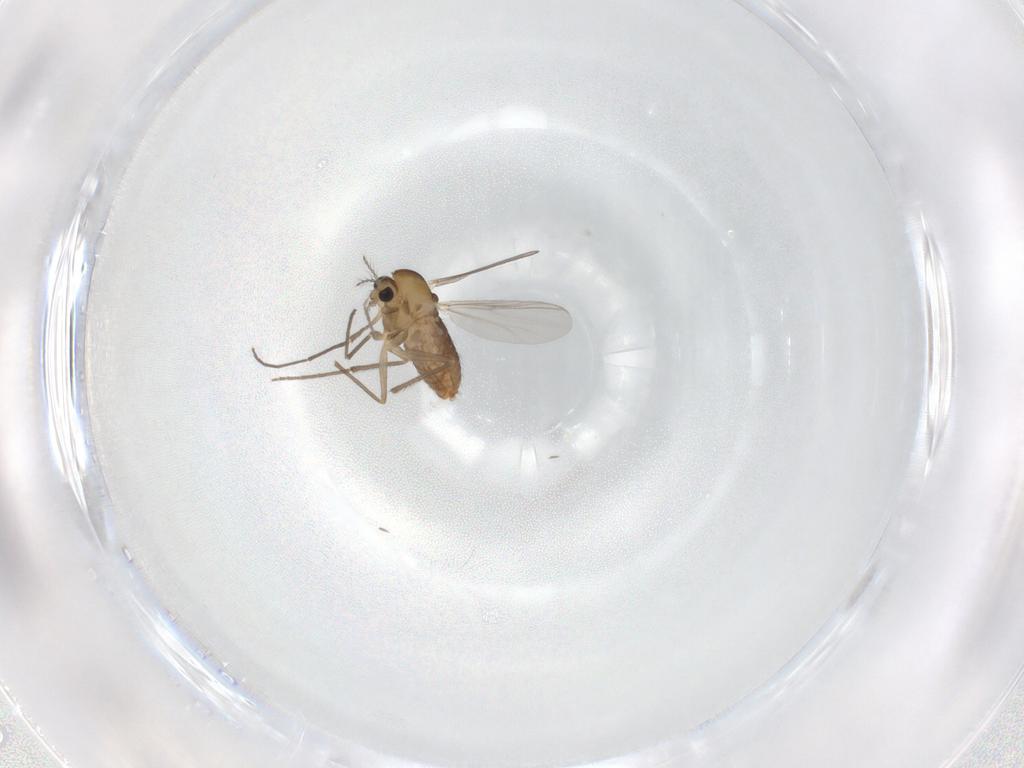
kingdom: Animalia
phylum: Arthropoda
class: Insecta
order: Diptera
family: Chironomidae
